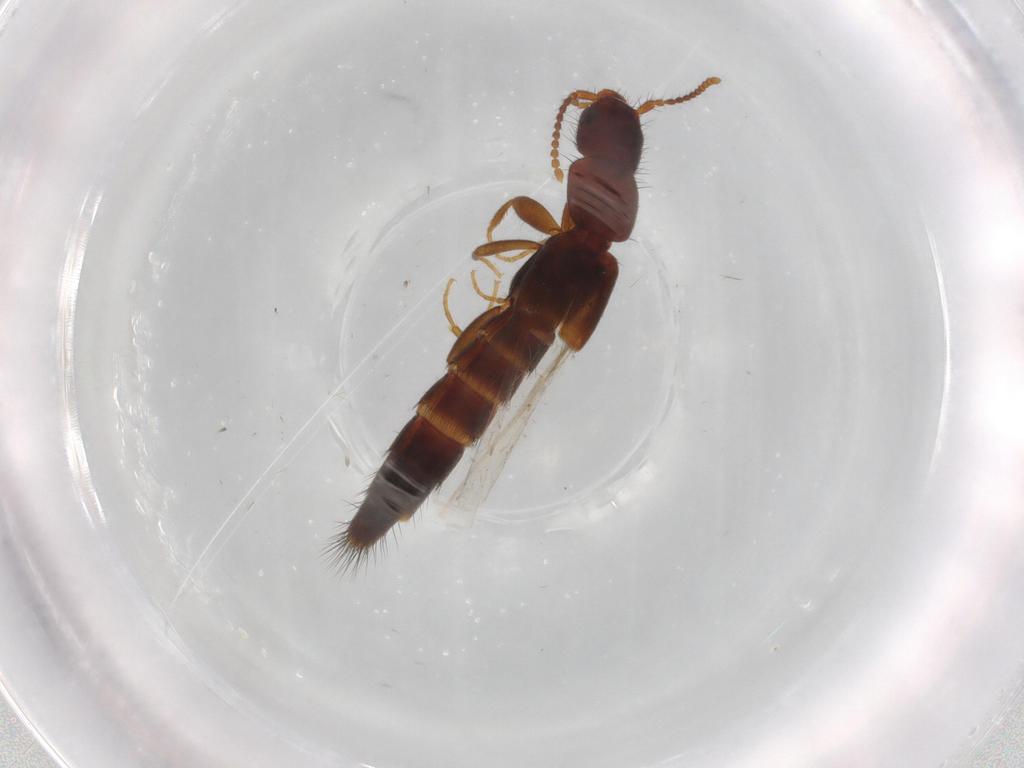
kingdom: Animalia
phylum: Arthropoda
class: Insecta
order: Coleoptera
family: Staphylinidae
